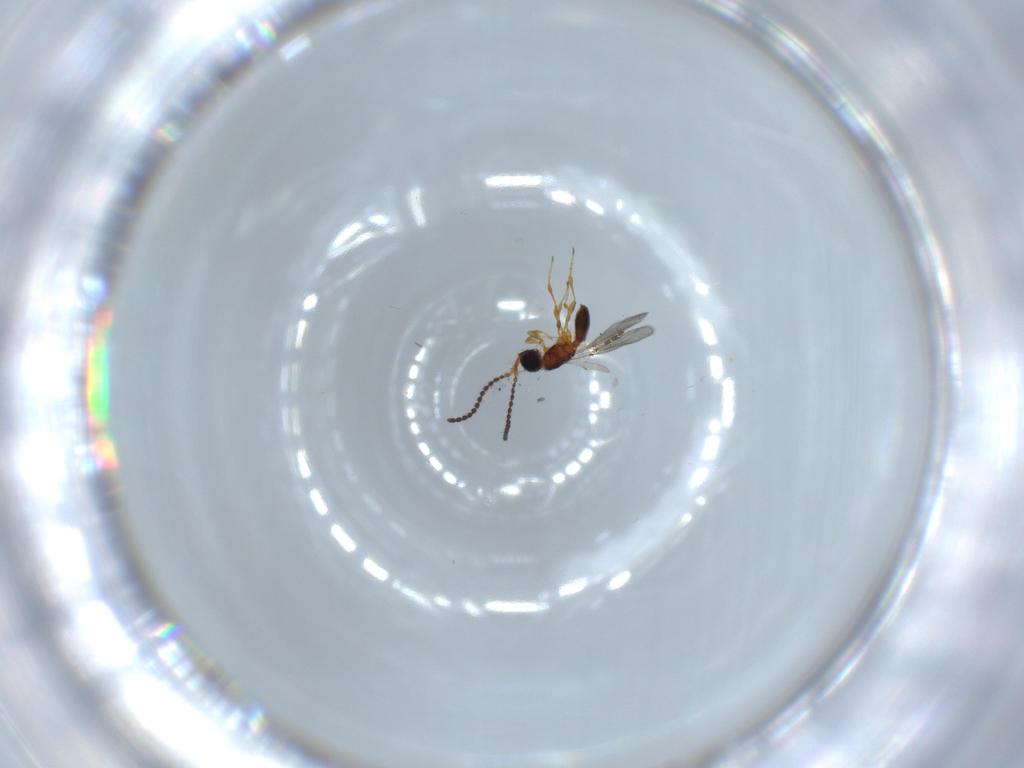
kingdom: Animalia
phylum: Arthropoda
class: Insecta
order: Hymenoptera
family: Diapriidae
